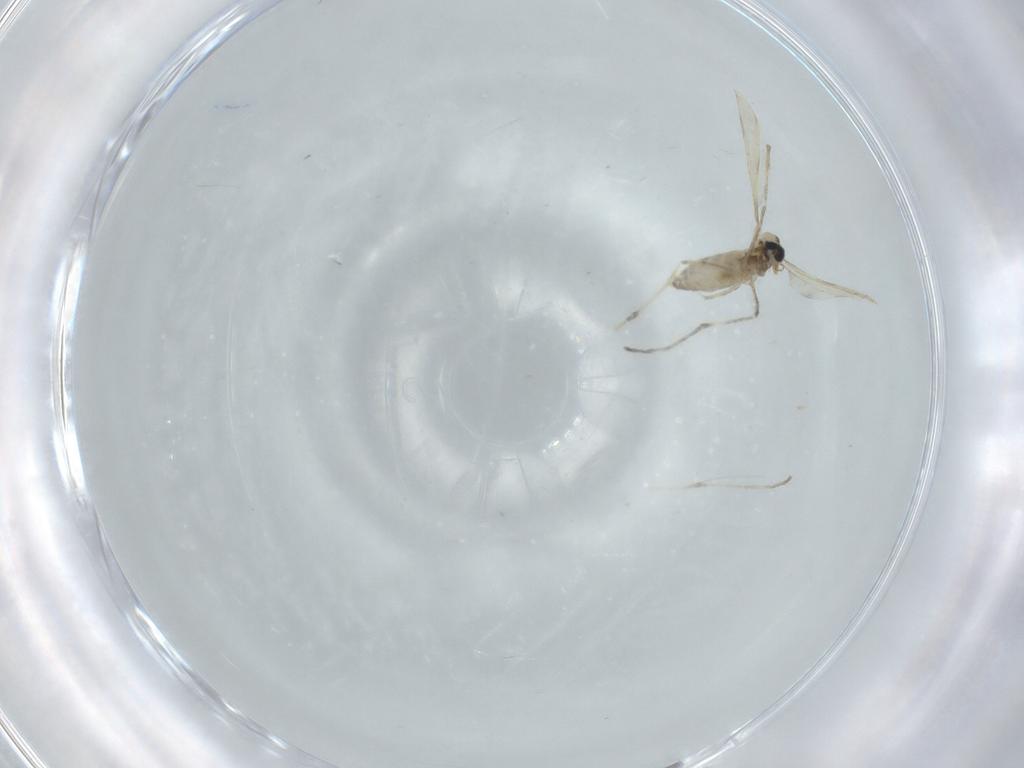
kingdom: Animalia
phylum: Arthropoda
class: Insecta
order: Diptera
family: Cecidomyiidae
